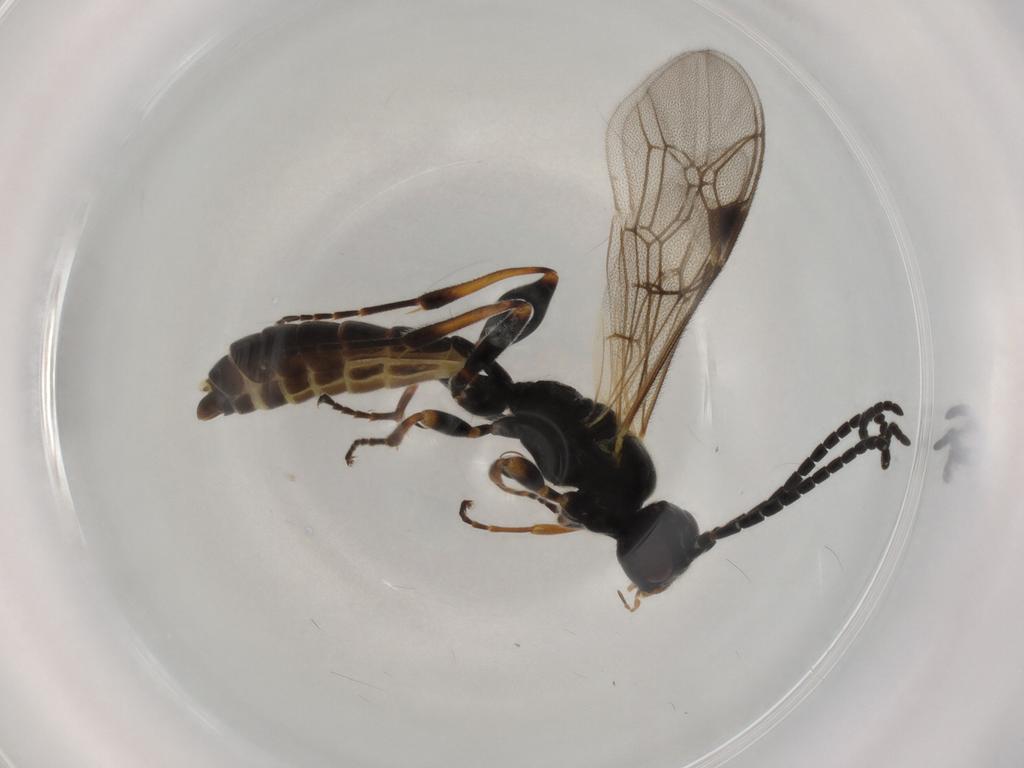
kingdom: Animalia
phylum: Arthropoda
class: Insecta
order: Hymenoptera
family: Ichneumonidae
